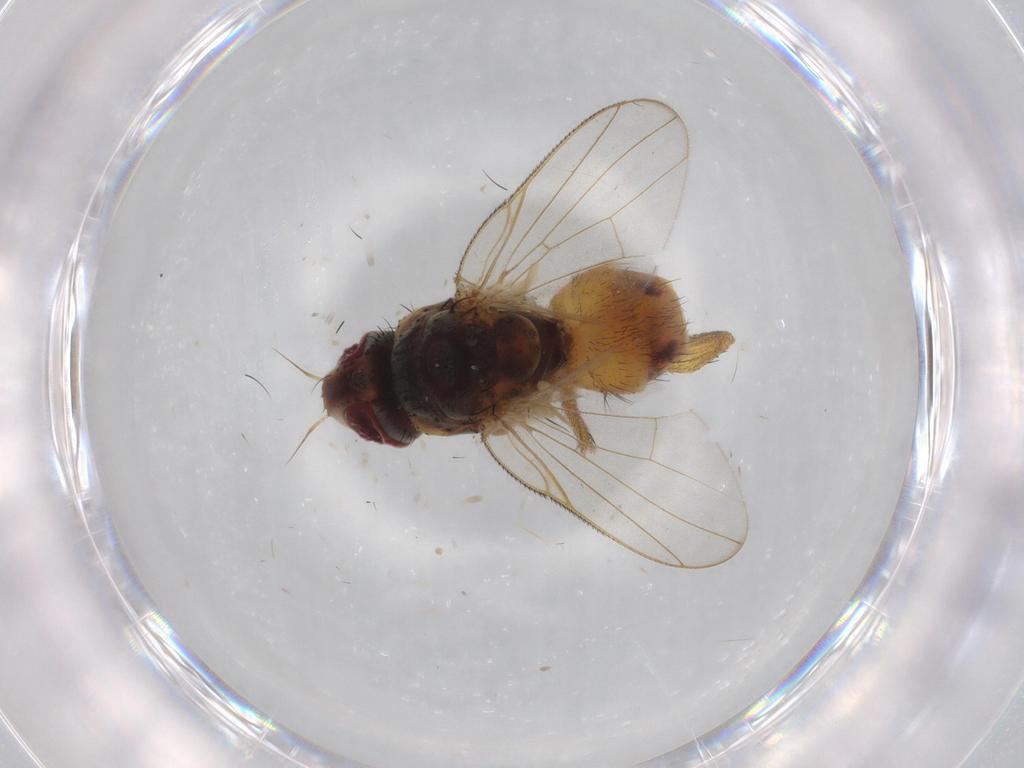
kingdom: Animalia
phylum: Arthropoda
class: Insecta
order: Diptera
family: Muscidae
